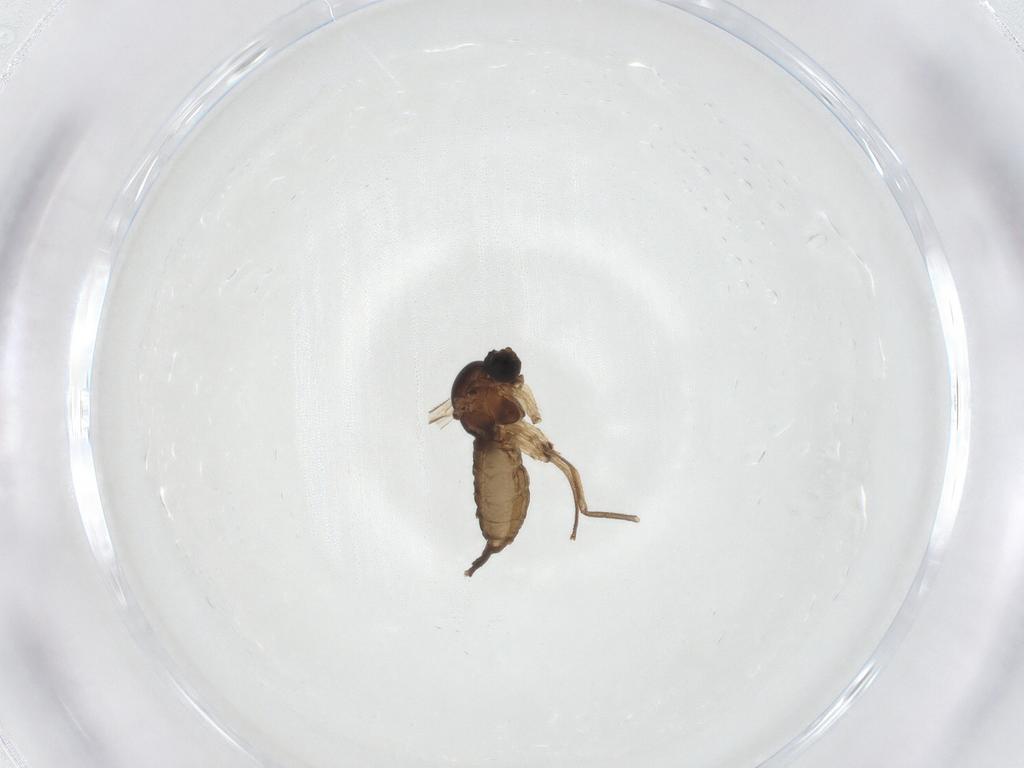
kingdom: Animalia
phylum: Arthropoda
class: Insecta
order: Diptera
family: Sciaridae
